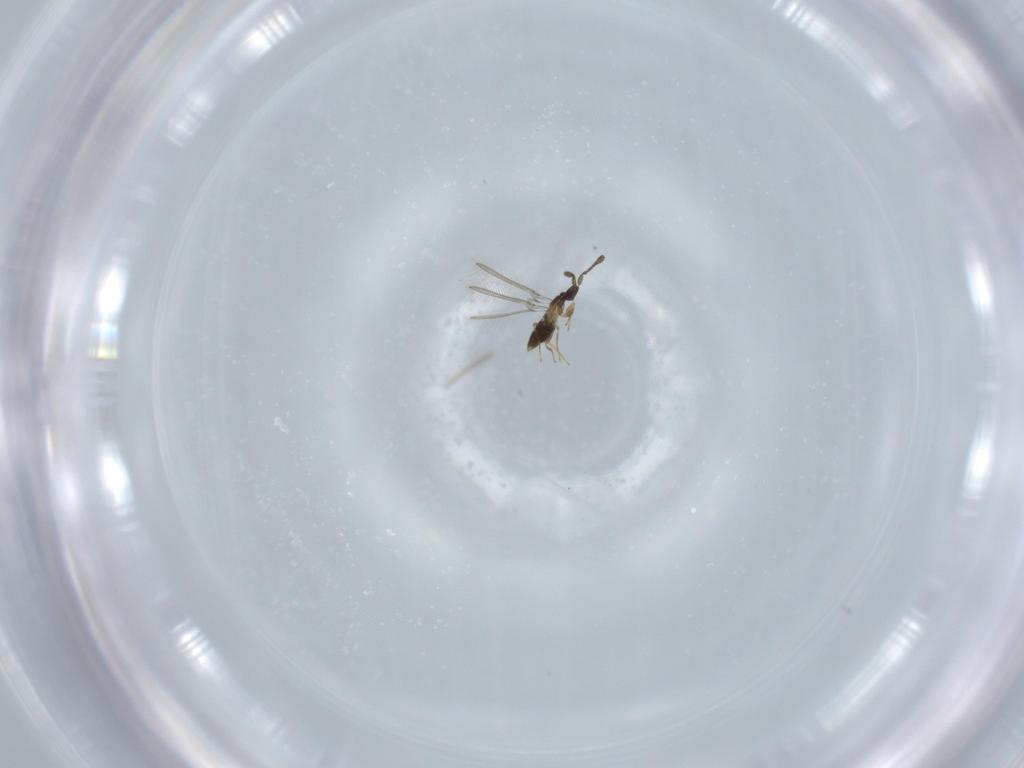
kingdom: Animalia
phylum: Arthropoda
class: Insecta
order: Hymenoptera
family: Mymaridae
